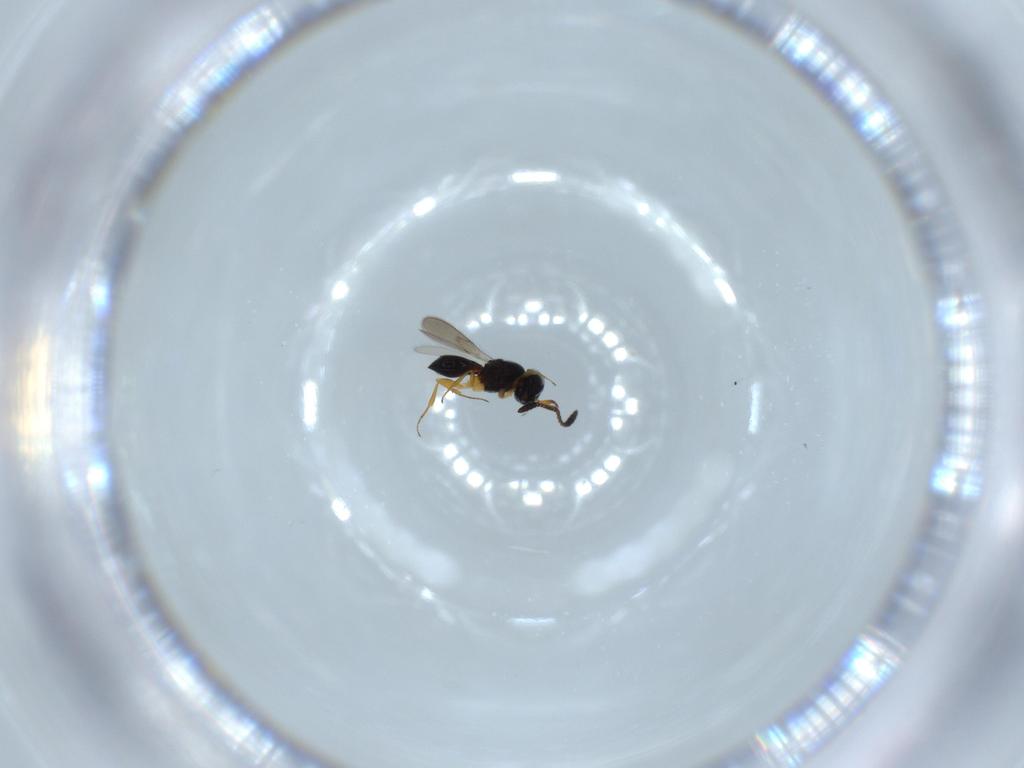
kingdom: Animalia
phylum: Arthropoda
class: Insecta
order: Hymenoptera
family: Scelionidae
